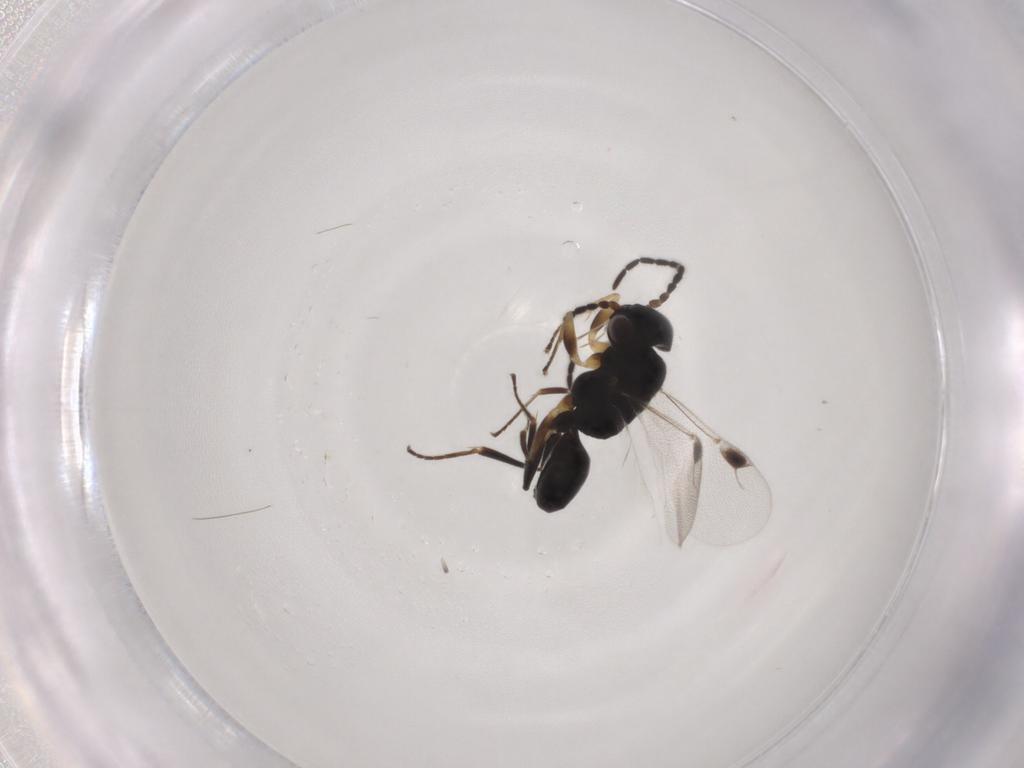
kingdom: Animalia
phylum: Arthropoda
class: Insecta
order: Hymenoptera
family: Dryinidae
